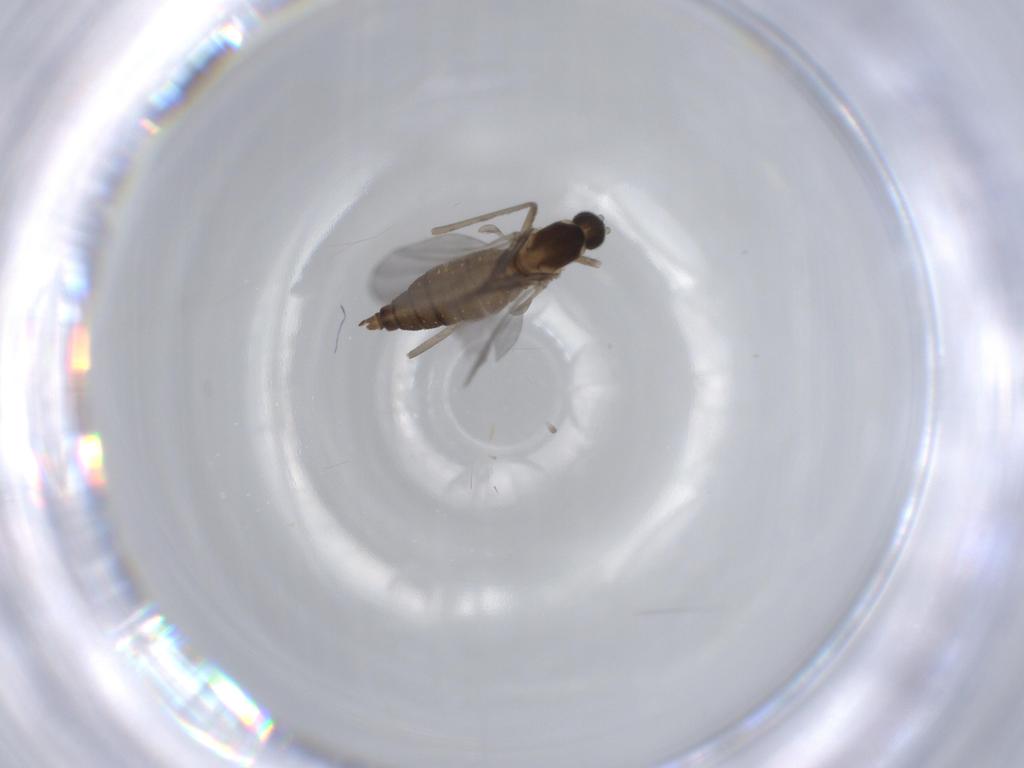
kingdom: Animalia
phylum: Arthropoda
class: Insecta
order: Diptera
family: Cecidomyiidae
